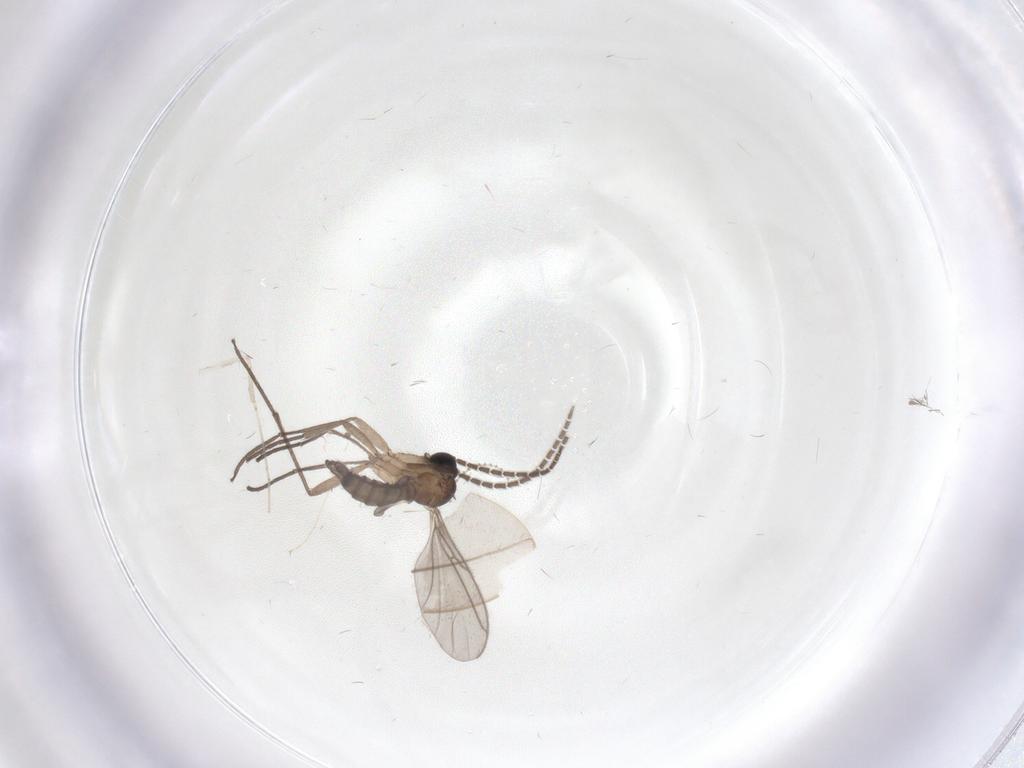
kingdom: Animalia
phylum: Arthropoda
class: Insecta
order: Diptera
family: Sciaridae
